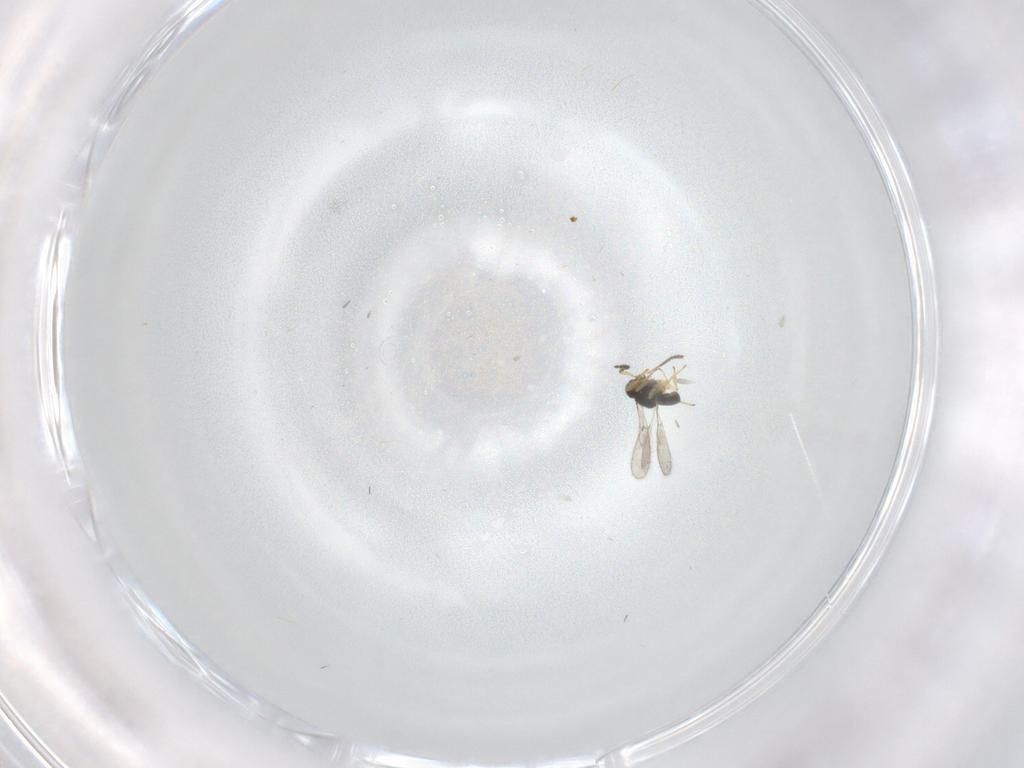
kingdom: Animalia
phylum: Arthropoda
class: Insecta
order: Hymenoptera
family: Scelionidae
